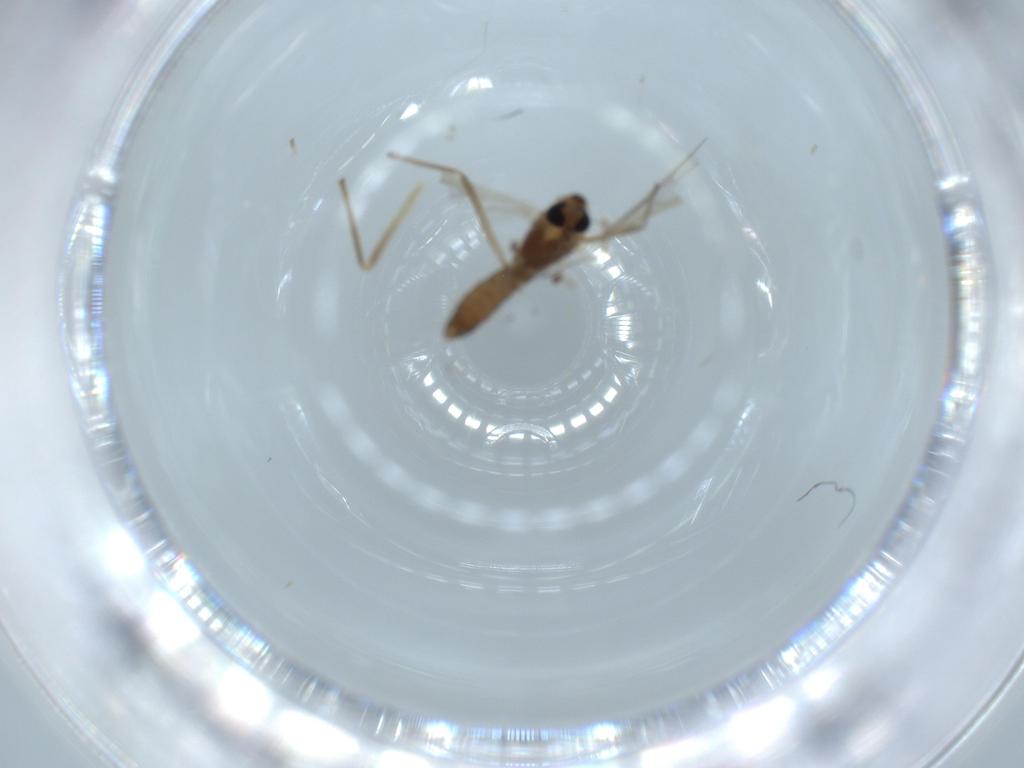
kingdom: Animalia
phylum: Arthropoda
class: Insecta
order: Diptera
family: Chironomidae
